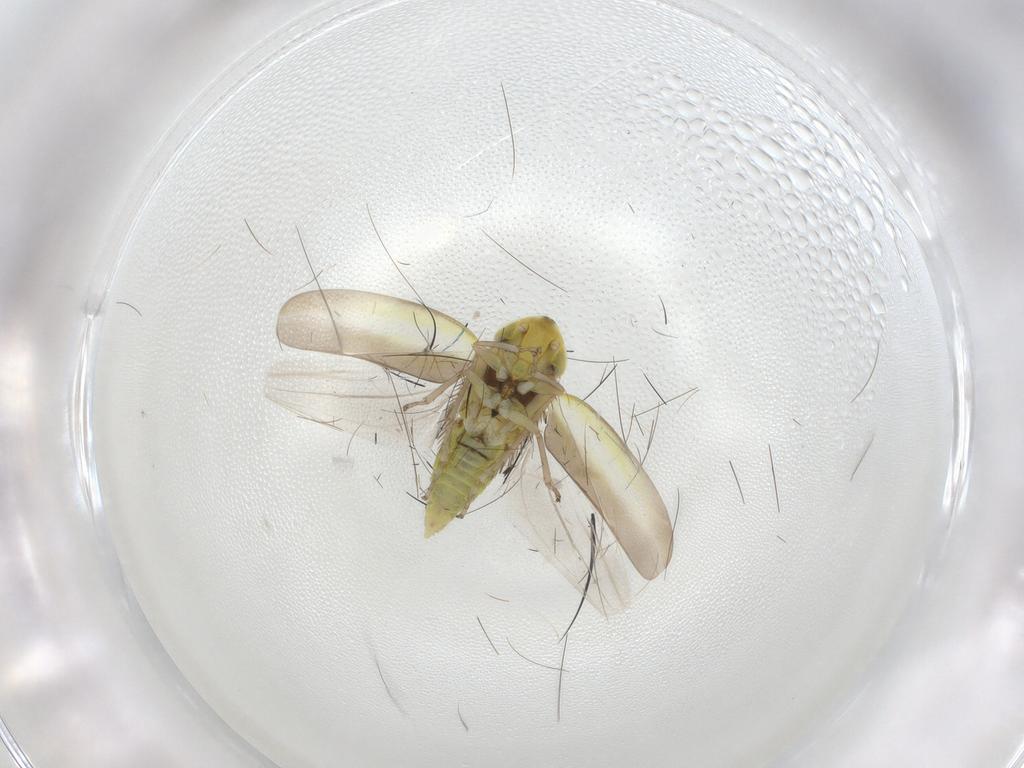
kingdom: Animalia
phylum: Arthropoda
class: Insecta
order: Hemiptera
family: Cicadellidae
